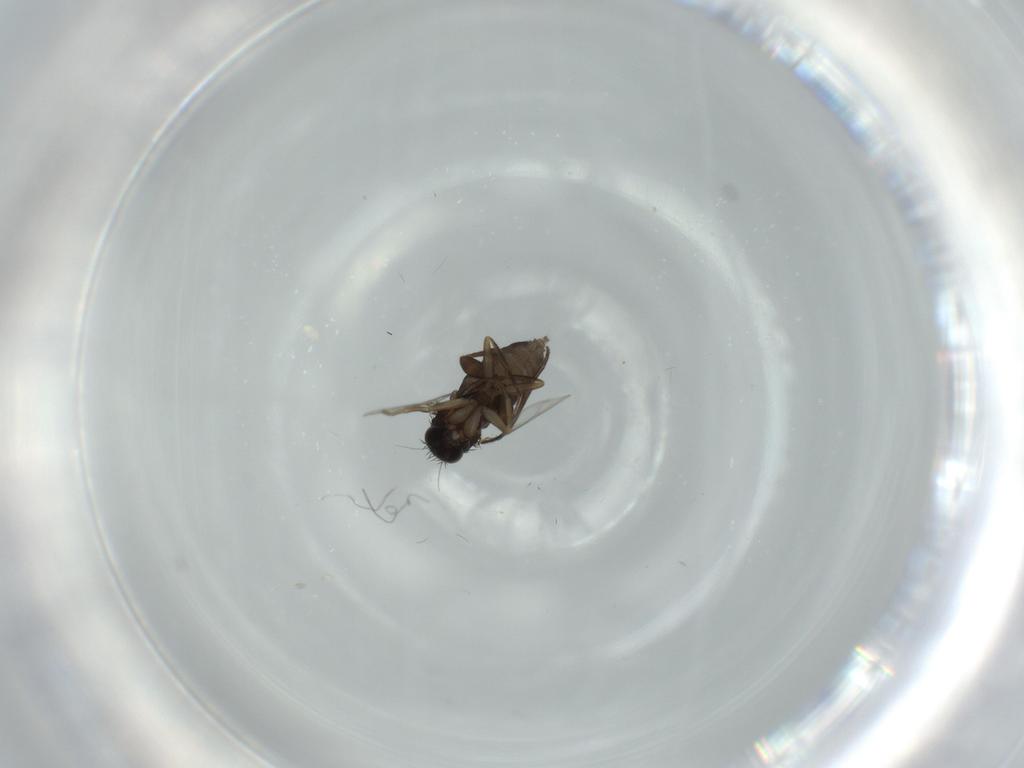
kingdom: Animalia
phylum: Arthropoda
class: Insecta
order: Diptera
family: Phoridae
